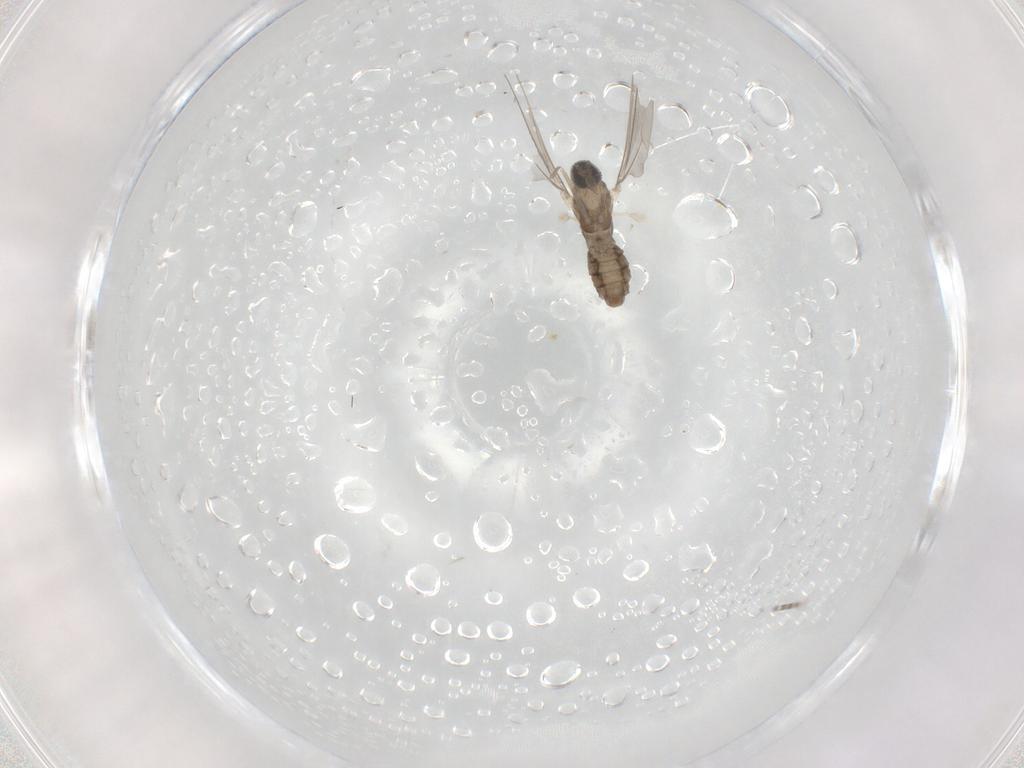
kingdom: Animalia
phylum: Arthropoda
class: Insecta
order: Diptera
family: Cecidomyiidae
